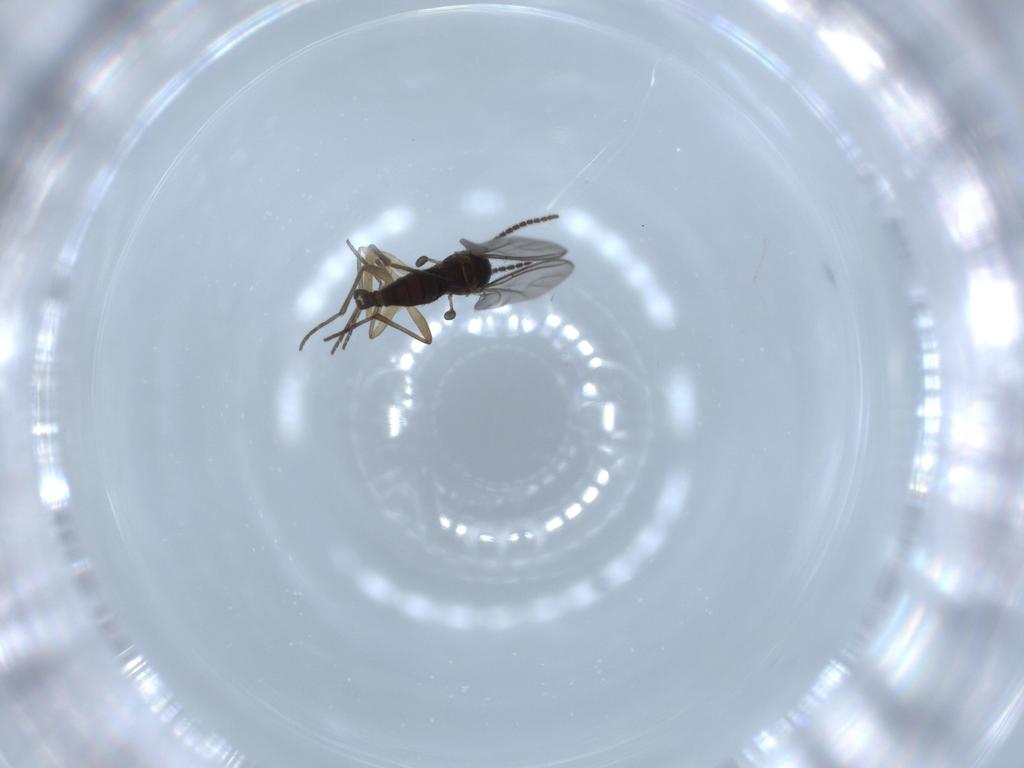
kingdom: Animalia
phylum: Arthropoda
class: Insecta
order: Diptera
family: Sciaridae
